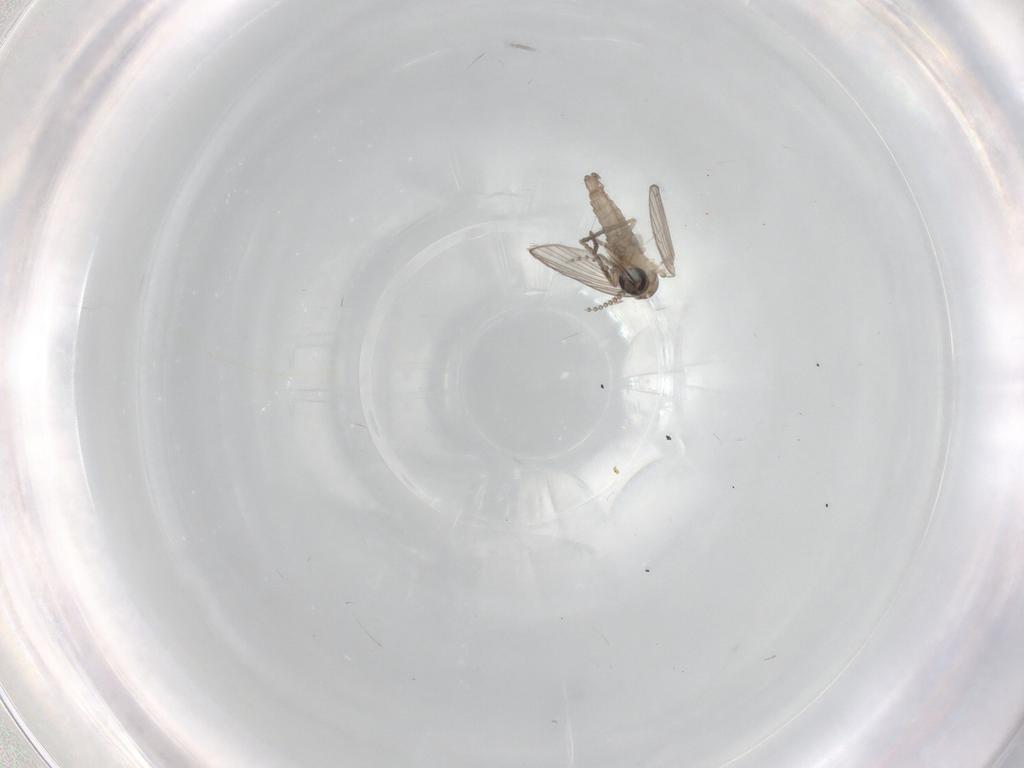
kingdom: Animalia
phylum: Arthropoda
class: Insecta
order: Diptera
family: Psychodidae
